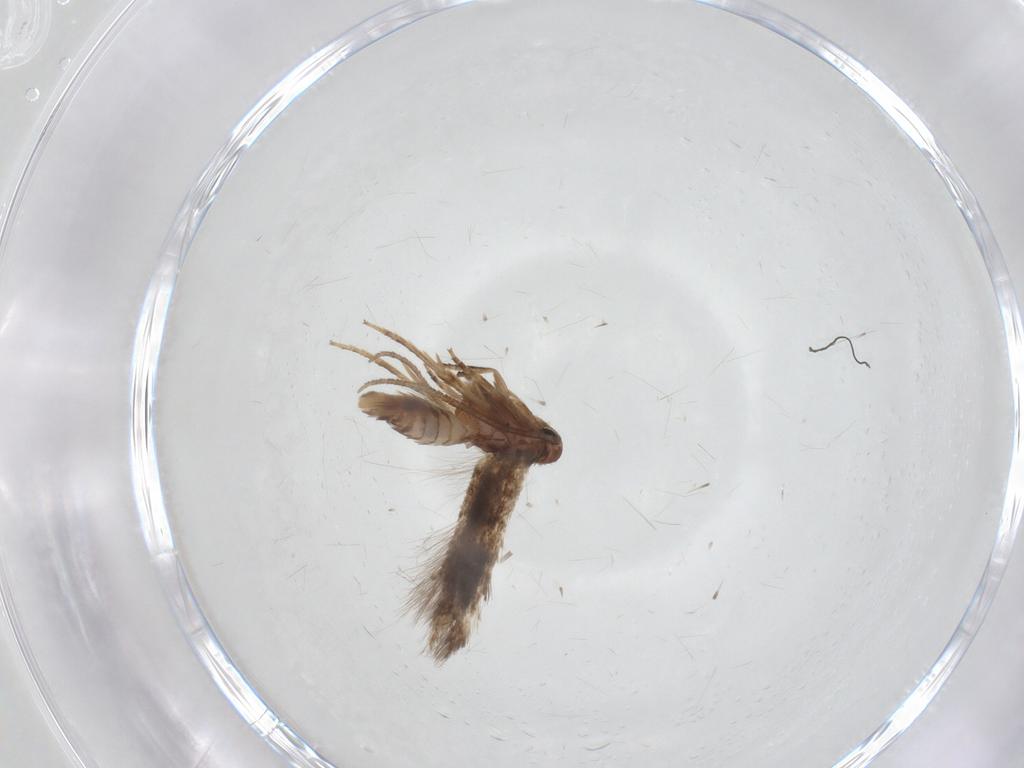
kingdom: Animalia
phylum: Arthropoda
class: Insecta
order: Lepidoptera
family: Gelechiidae
